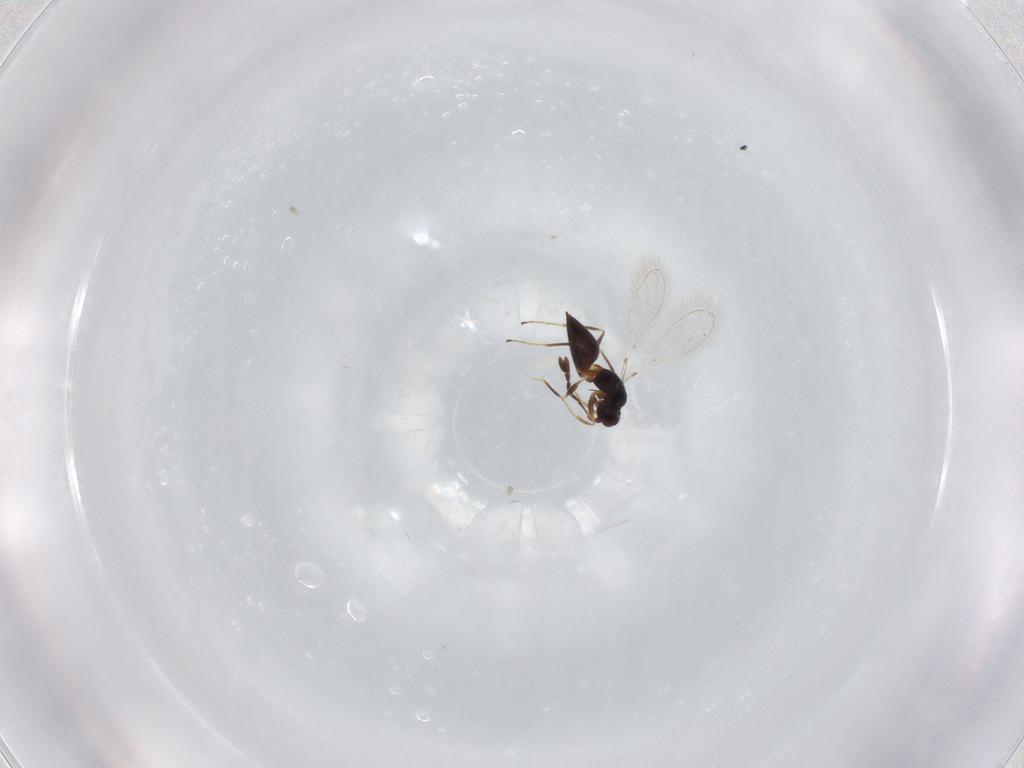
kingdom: Animalia
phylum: Arthropoda
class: Insecta
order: Hymenoptera
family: Mymaridae
